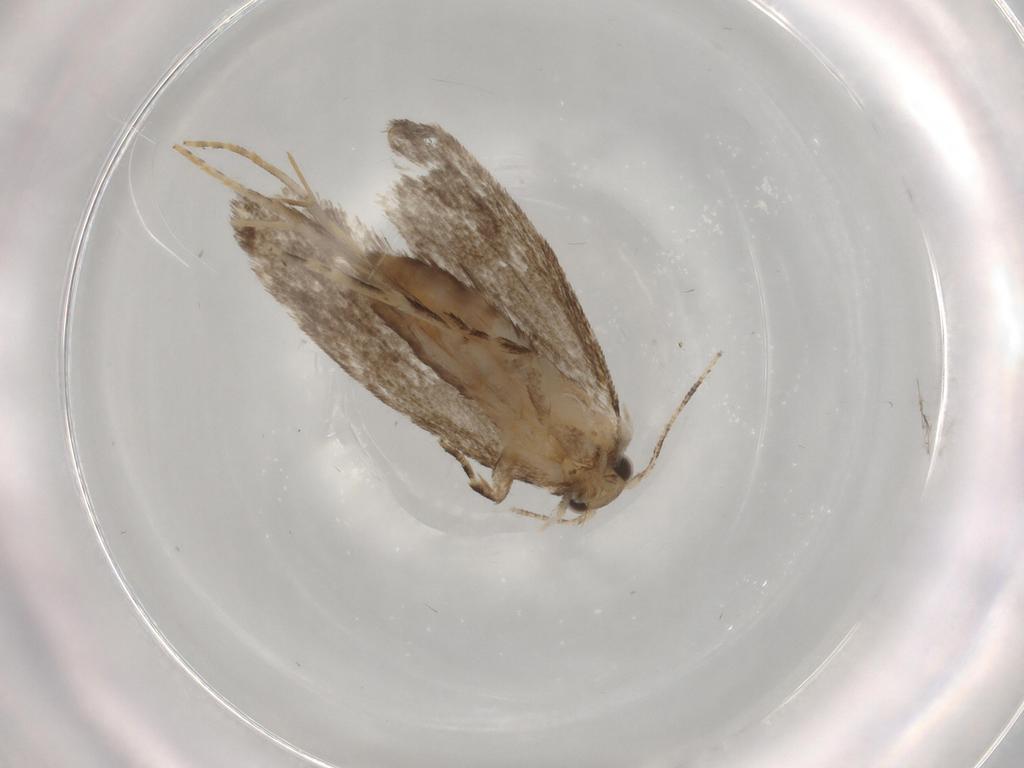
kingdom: Animalia
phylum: Arthropoda
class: Insecta
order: Lepidoptera
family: Tineidae
